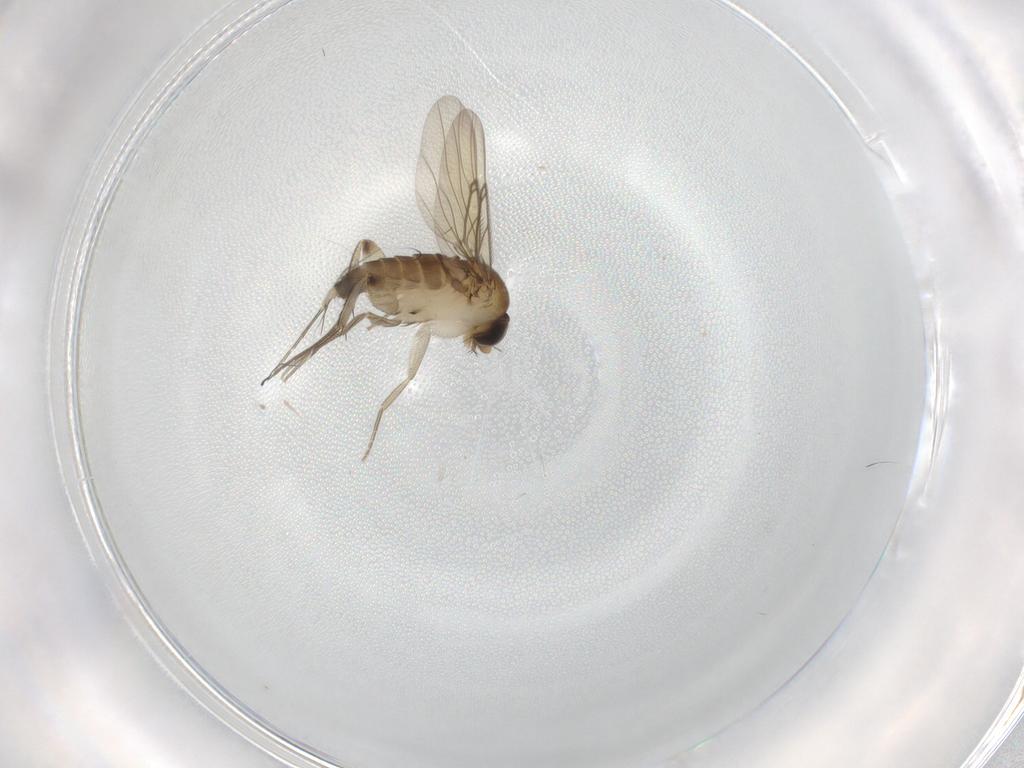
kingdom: Animalia
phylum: Arthropoda
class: Insecta
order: Diptera
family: Phoridae
